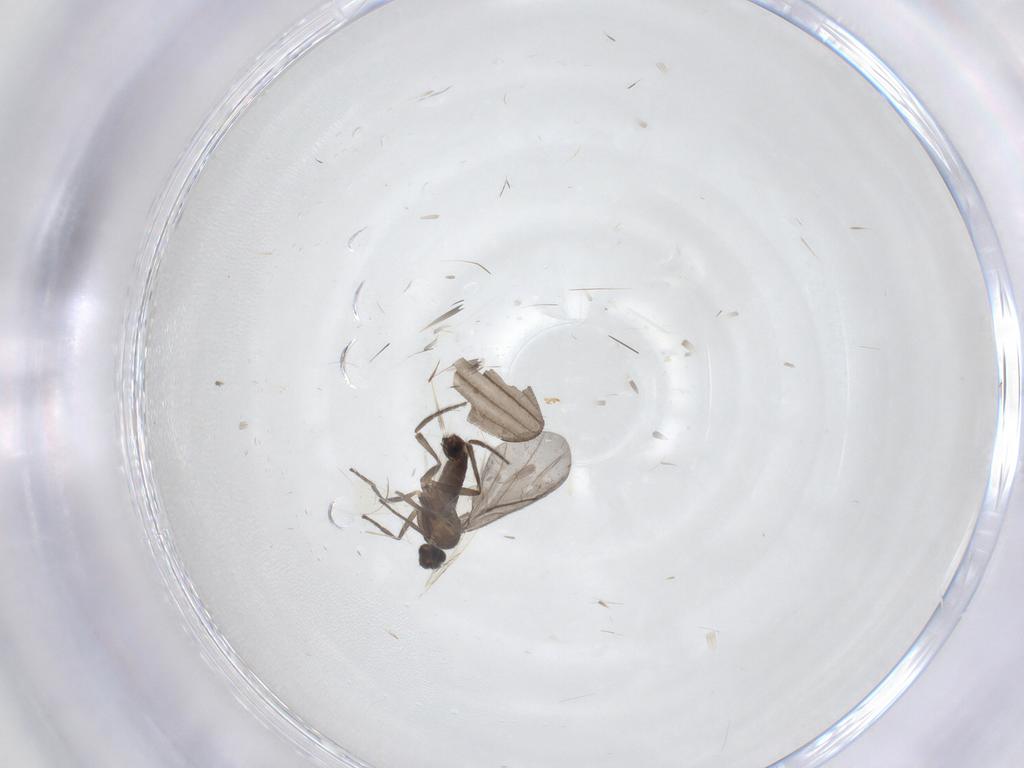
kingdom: Animalia
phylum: Arthropoda
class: Insecta
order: Diptera
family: Phoridae
